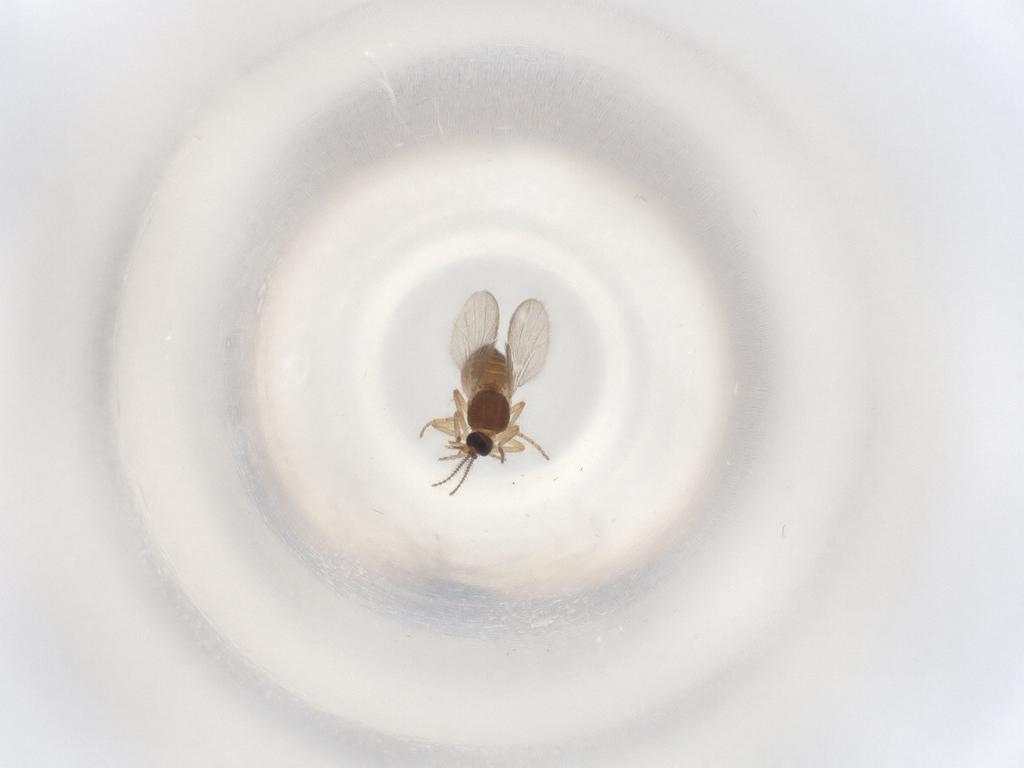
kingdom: Animalia
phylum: Arthropoda
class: Insecta
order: Diptera
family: Ceratopogonidae
